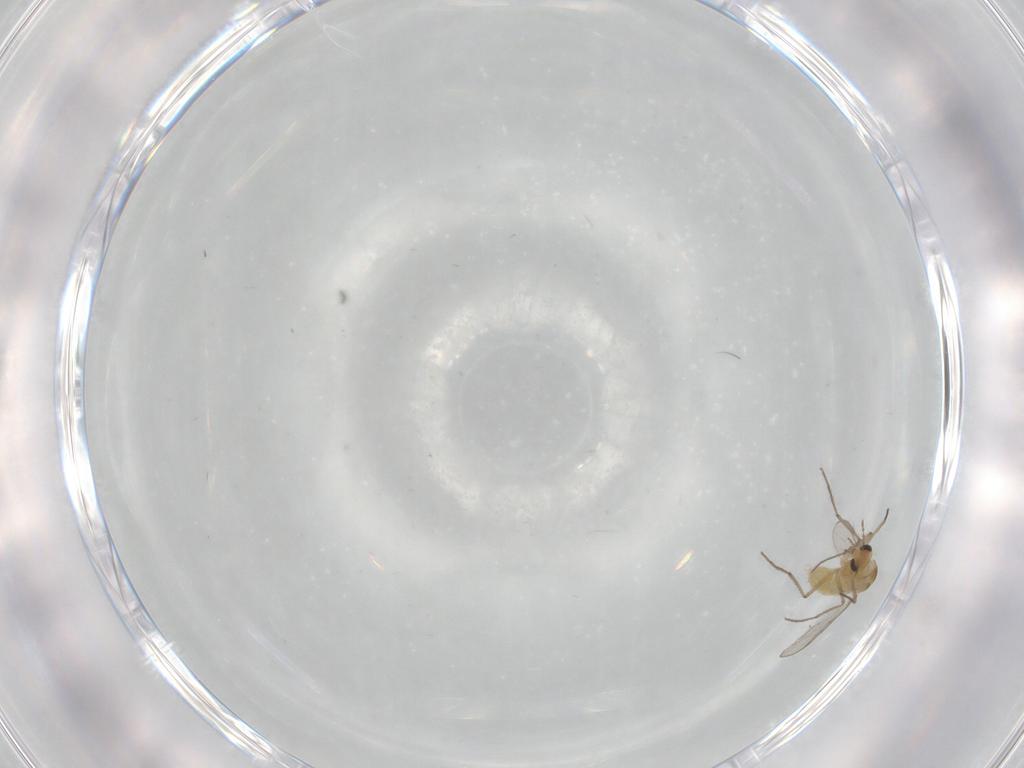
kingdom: Animalia
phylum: Arthropoda
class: Insecta
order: Diptera
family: Chironomidae
